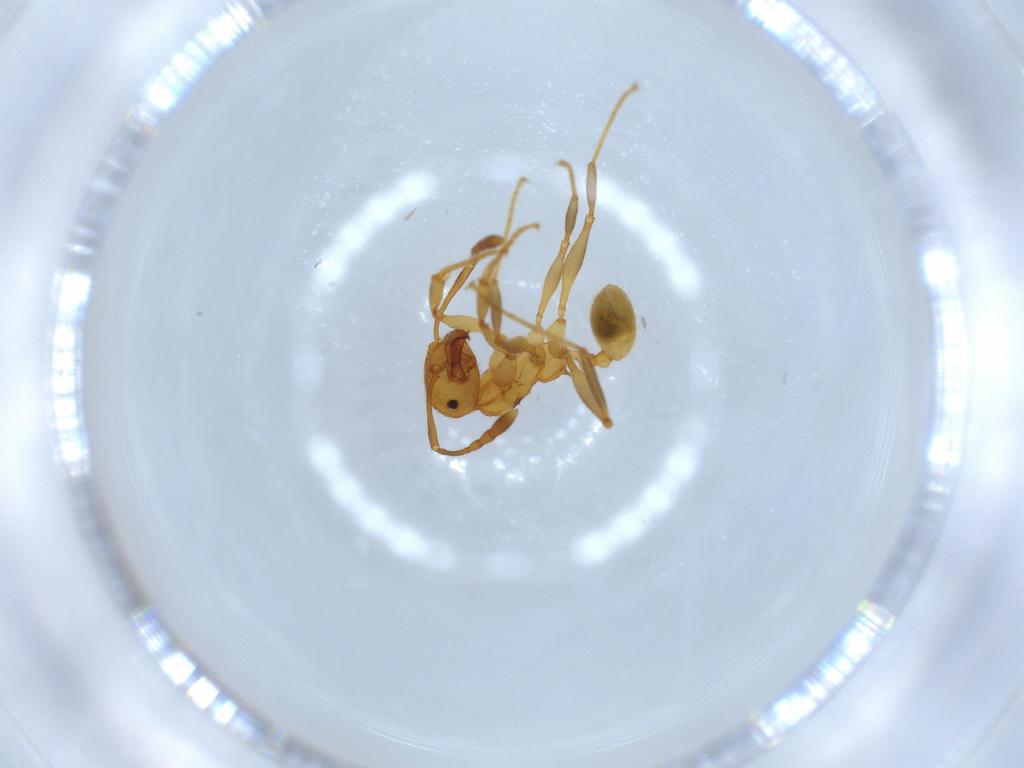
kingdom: Animalia
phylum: Arthropoda
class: Insecta
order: Hymenoptera
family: Formicidae
